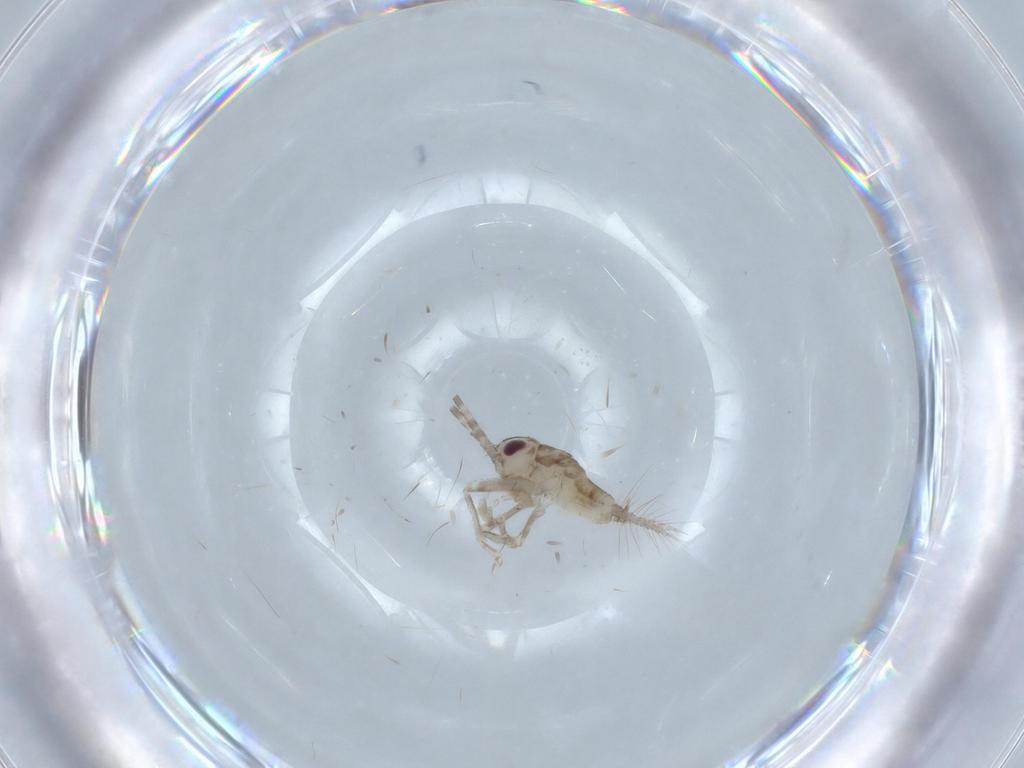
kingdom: Animalia
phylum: Arthropoda
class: Insecta
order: Orthoptera
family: Trigonidiidae
